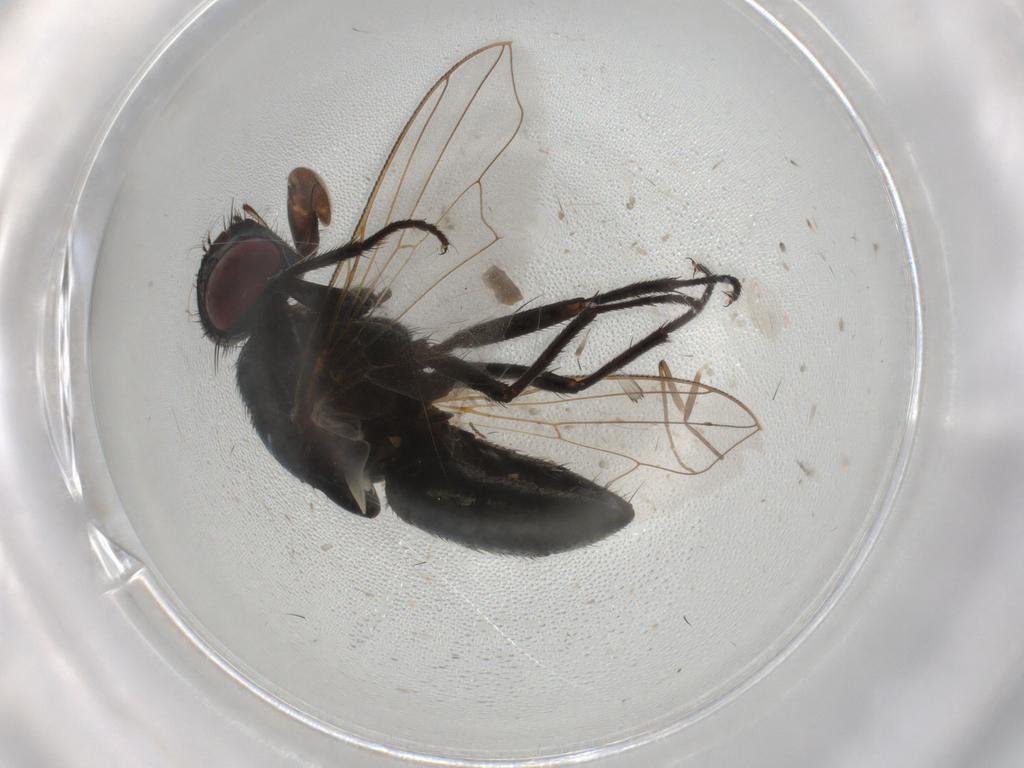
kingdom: Animalia
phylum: Arthropoda
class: Insecta
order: Diptera
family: Muscidae
